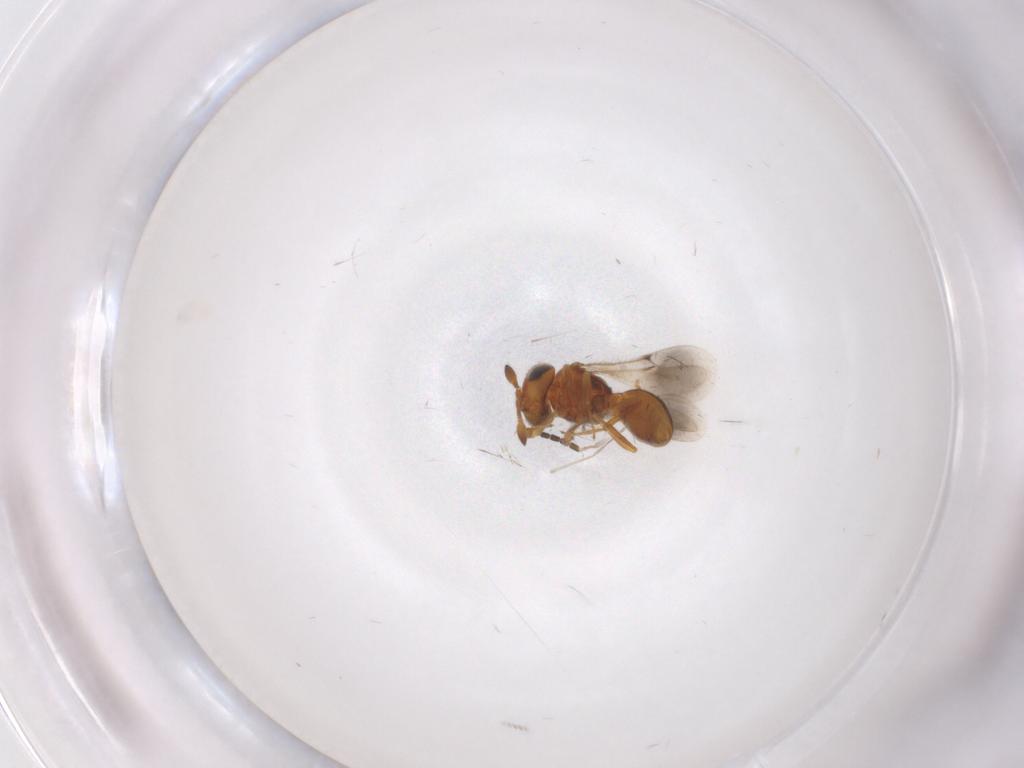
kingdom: Animalia
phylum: Arthropoda
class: Insecta
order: Hymenoptera
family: Scelionidae
